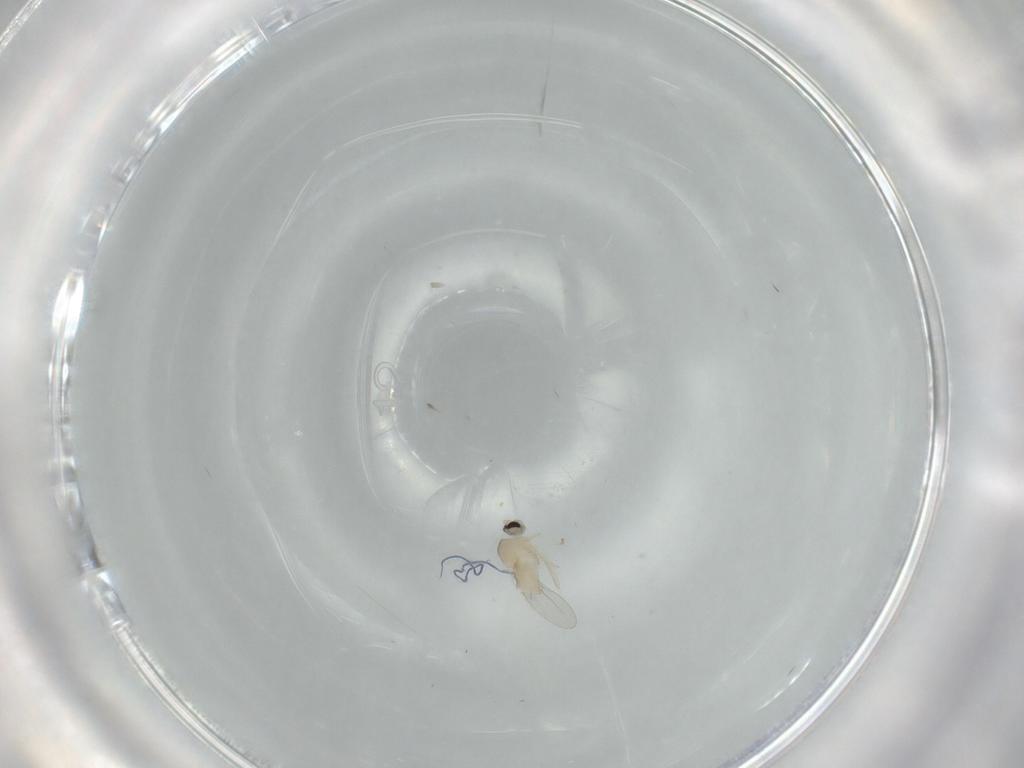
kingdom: Animalia
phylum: Arthropoda
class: Insecta
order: Diptera
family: Cecidomyiidae
